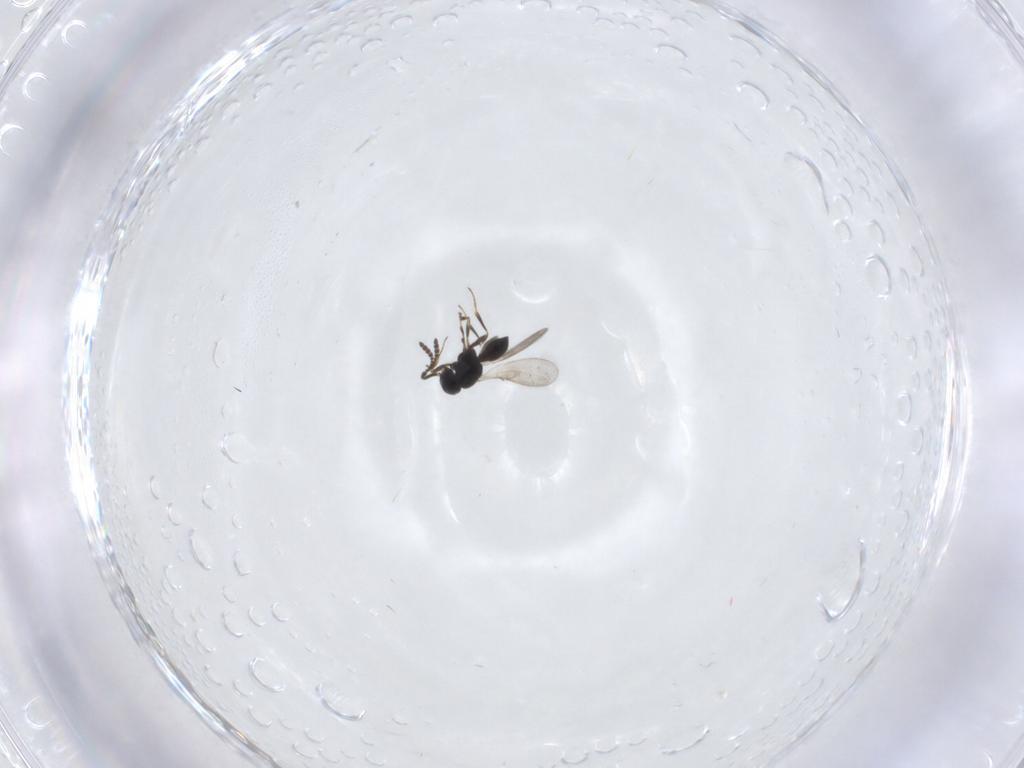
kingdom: Animalia
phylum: Arthropoda
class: Insecta
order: Hymenoptera
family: Scelionidae
